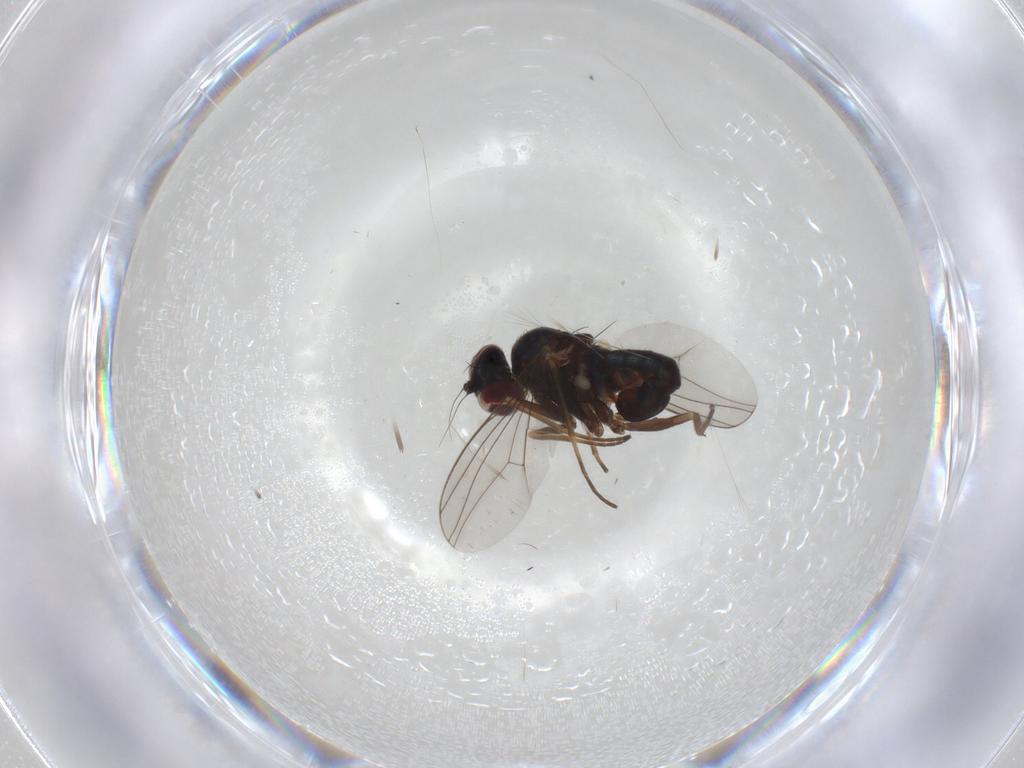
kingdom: Animalia
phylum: Arthropoda
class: Insecta
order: Diptera
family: Dolichopodidae
